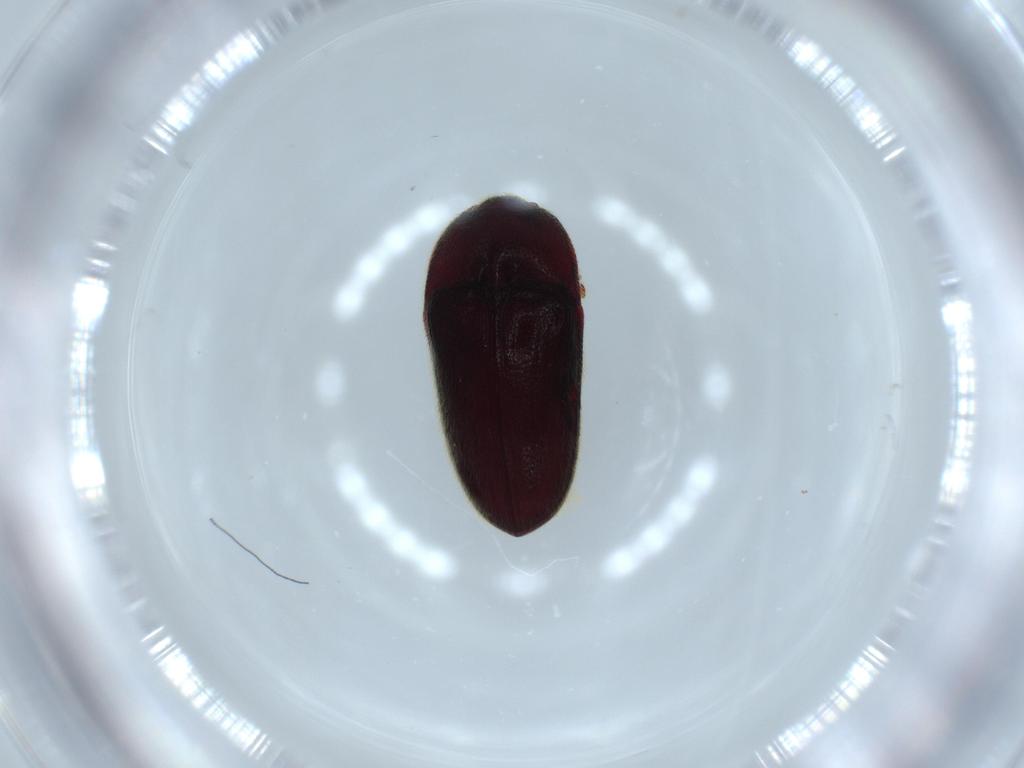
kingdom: Animalia
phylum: Arthropoda
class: Insecta
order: Coleoptera
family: Throscidae
